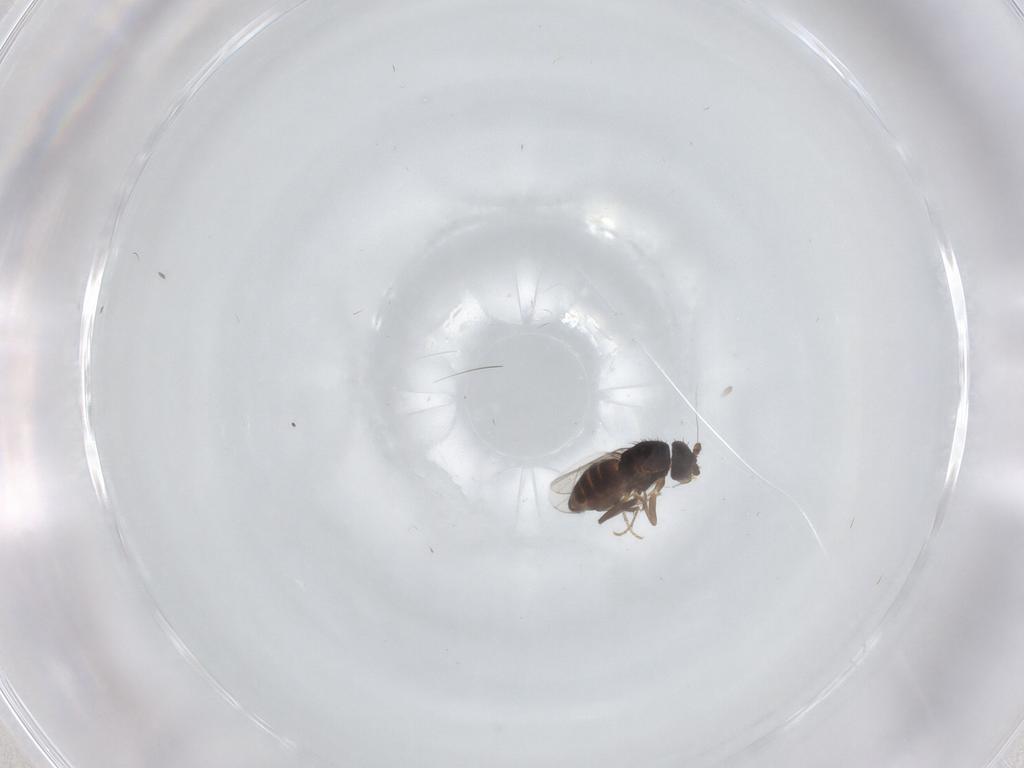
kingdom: Animalia
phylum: Arthropoda
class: Insecta
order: Diptera
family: Sphaeroceridae
